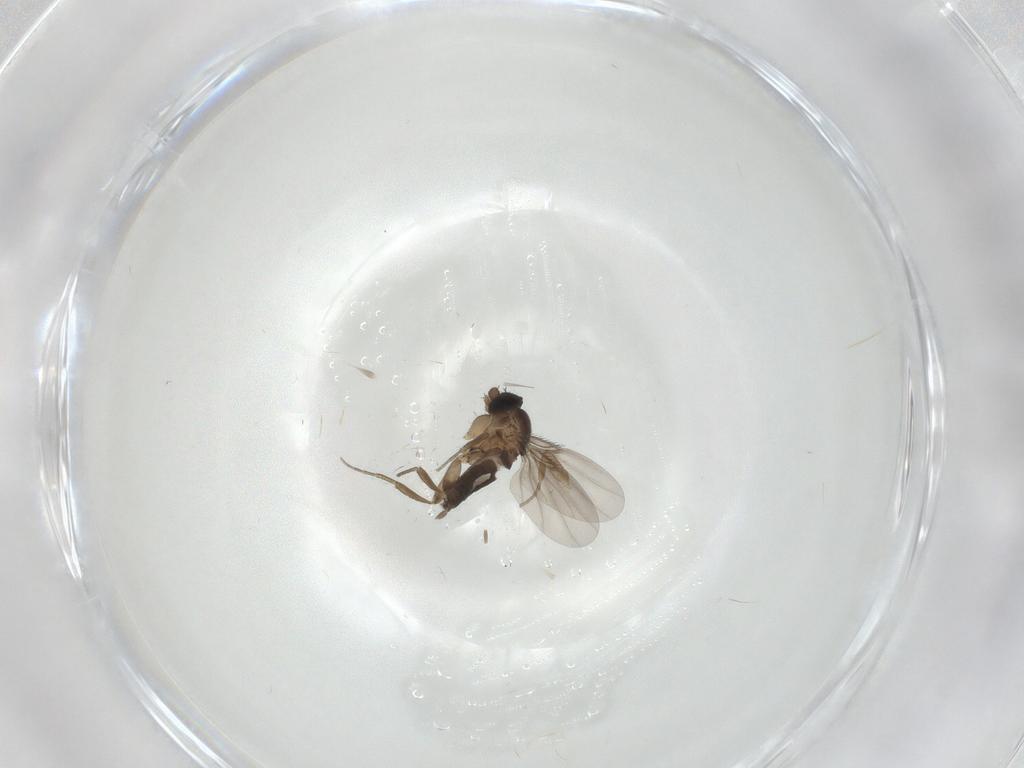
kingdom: Animalia
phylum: Arthropoda
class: Insecta
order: Diptera
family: Phoridae
